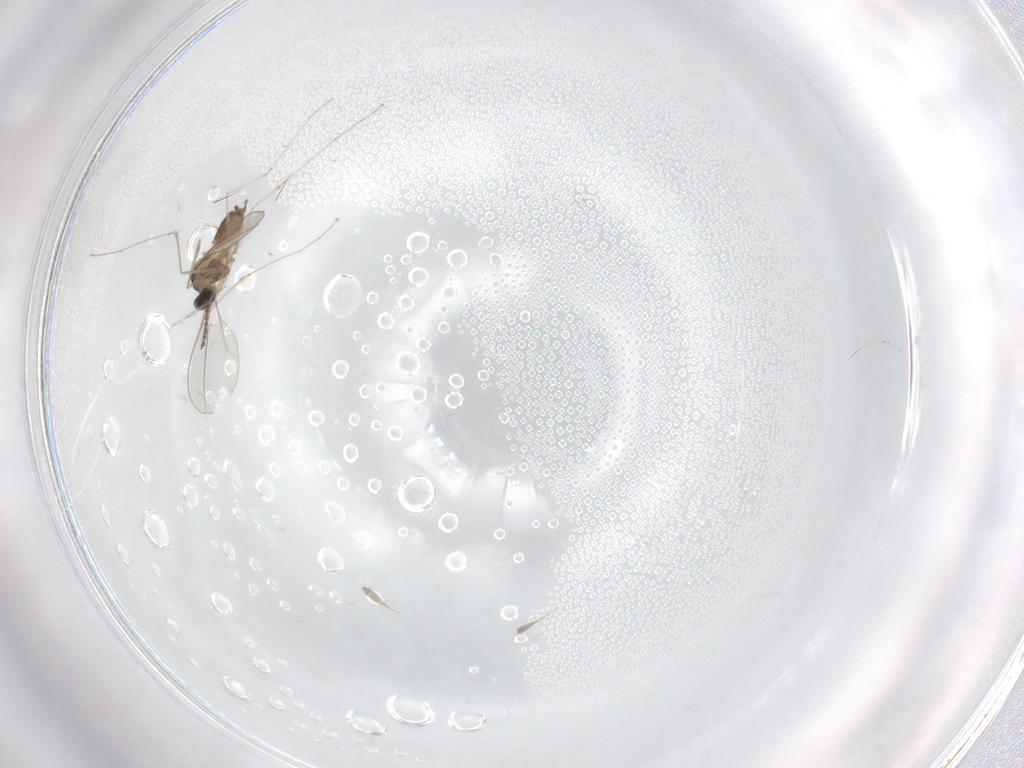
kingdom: Animalia
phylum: Arthropoda
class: Insecta
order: Diptera
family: Cecidomyiidae
